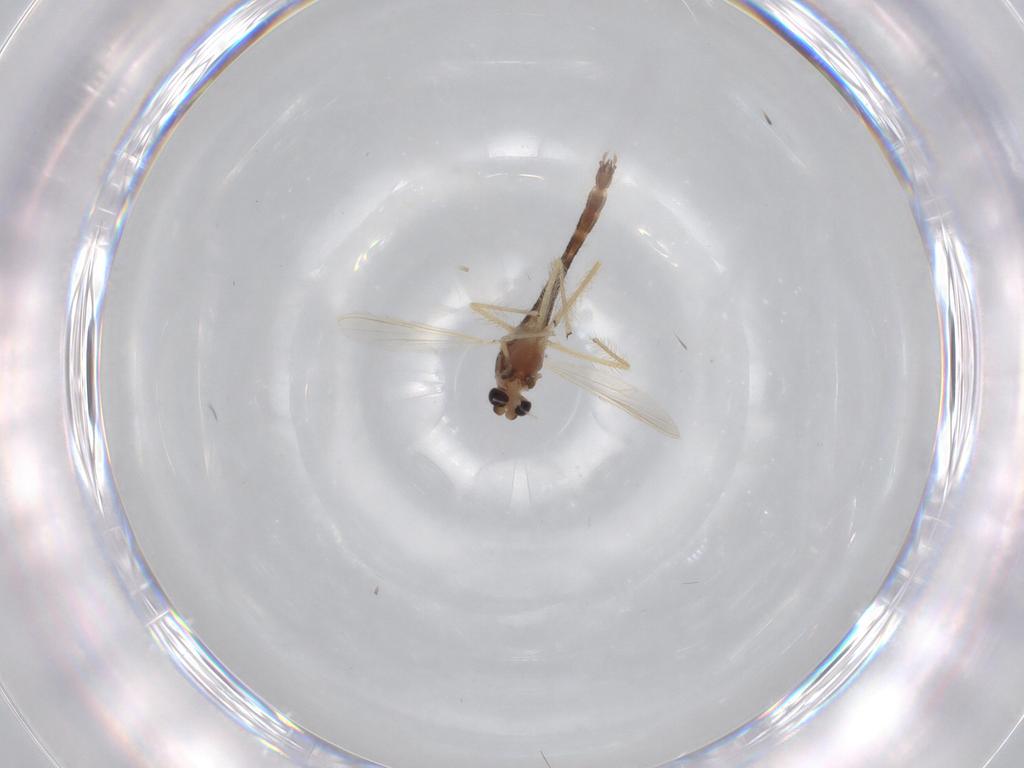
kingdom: Animalia
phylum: Arthropoda
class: Insecta
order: Diptera
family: Chironomidae
